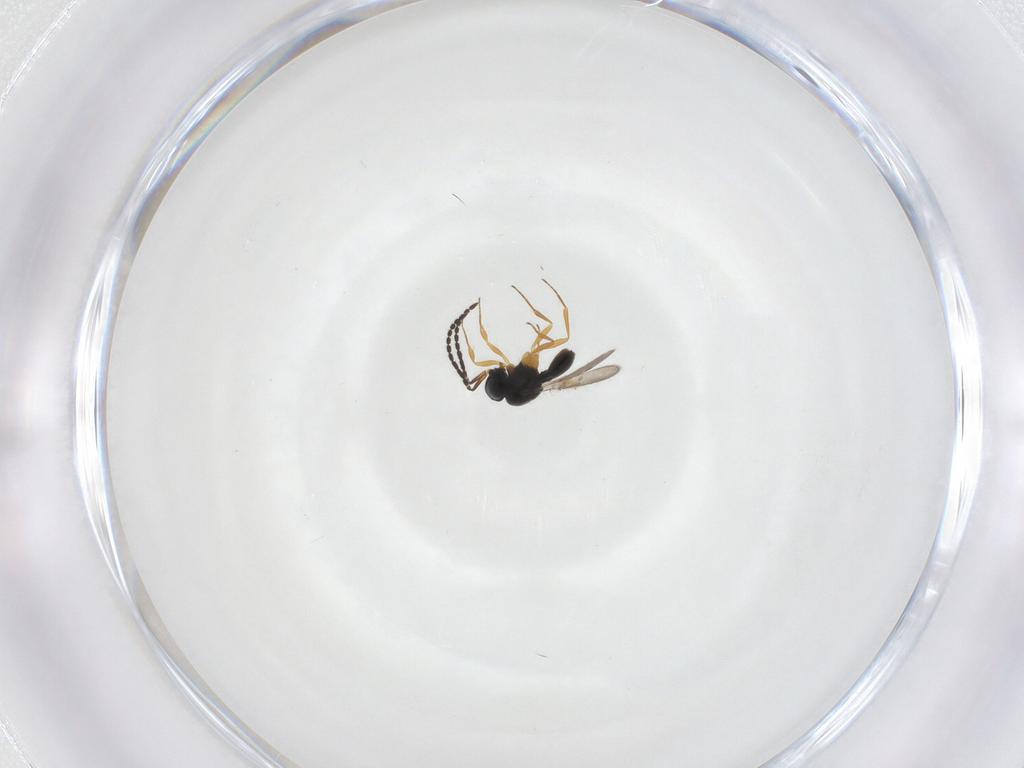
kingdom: Animalia
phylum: Arthropoda
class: Insecta
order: Hymenoptera
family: Scelionidae
